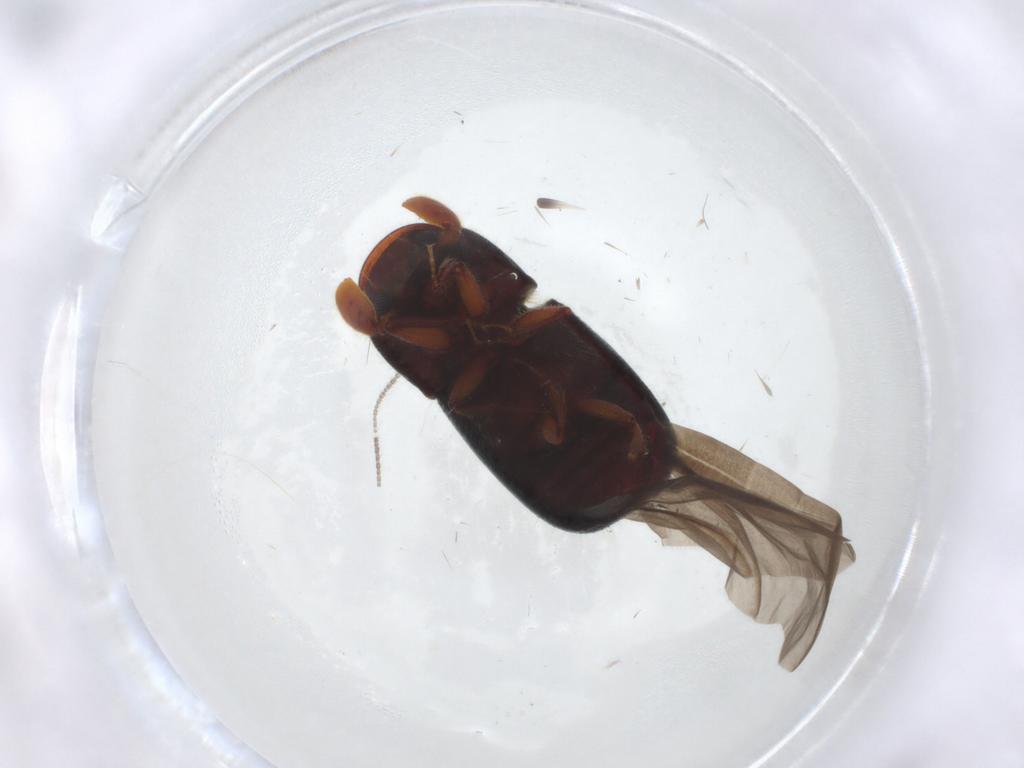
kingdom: Animalia
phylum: Arthropoda
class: Insecta
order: Coleoptera
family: Curculionidae
